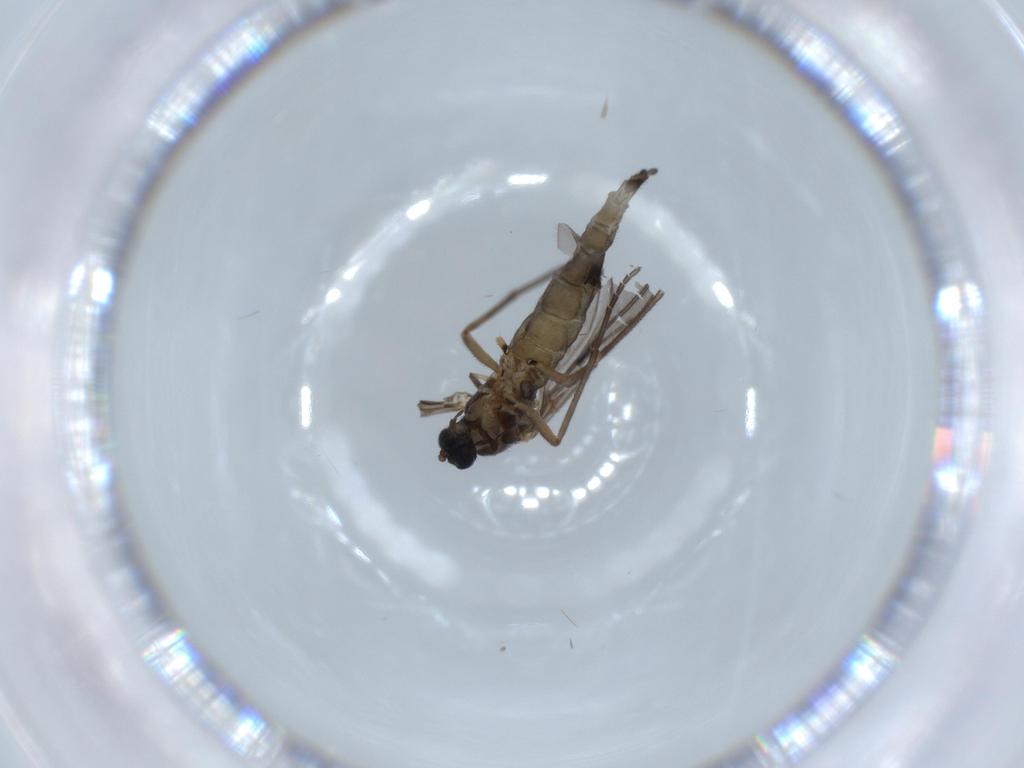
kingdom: Animalia
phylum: Arthropoda
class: Insecta
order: Diptera
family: Sciaridae
